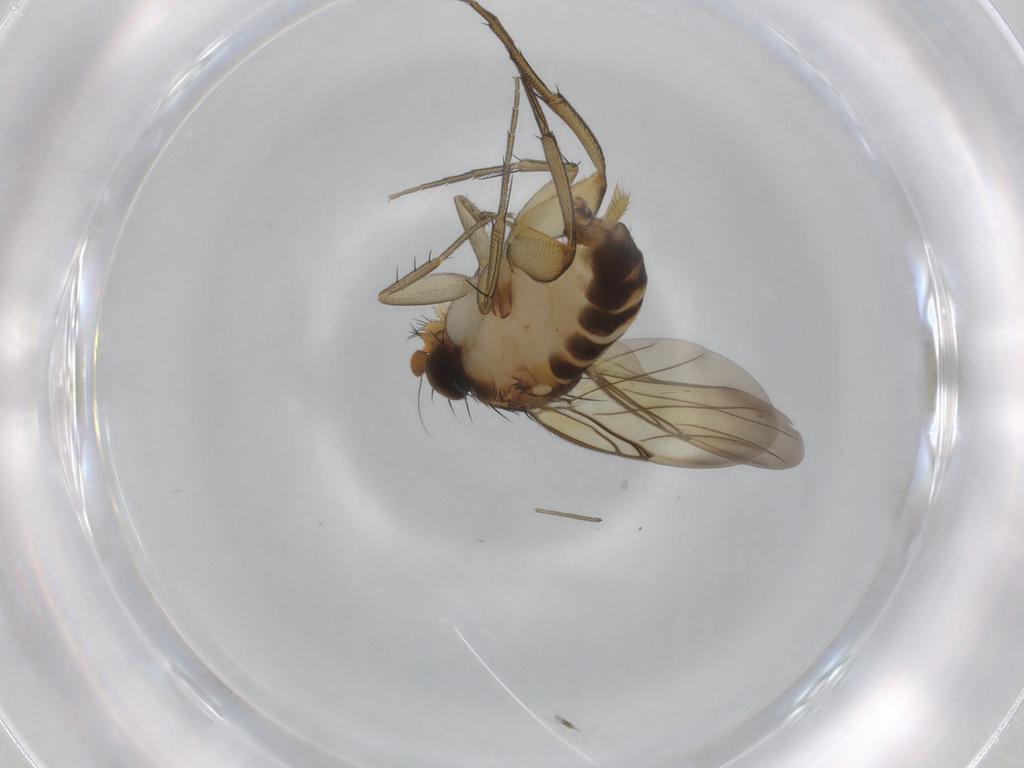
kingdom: Animalia
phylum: Arthropoda
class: Insecta
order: Diptera
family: Phoridae
